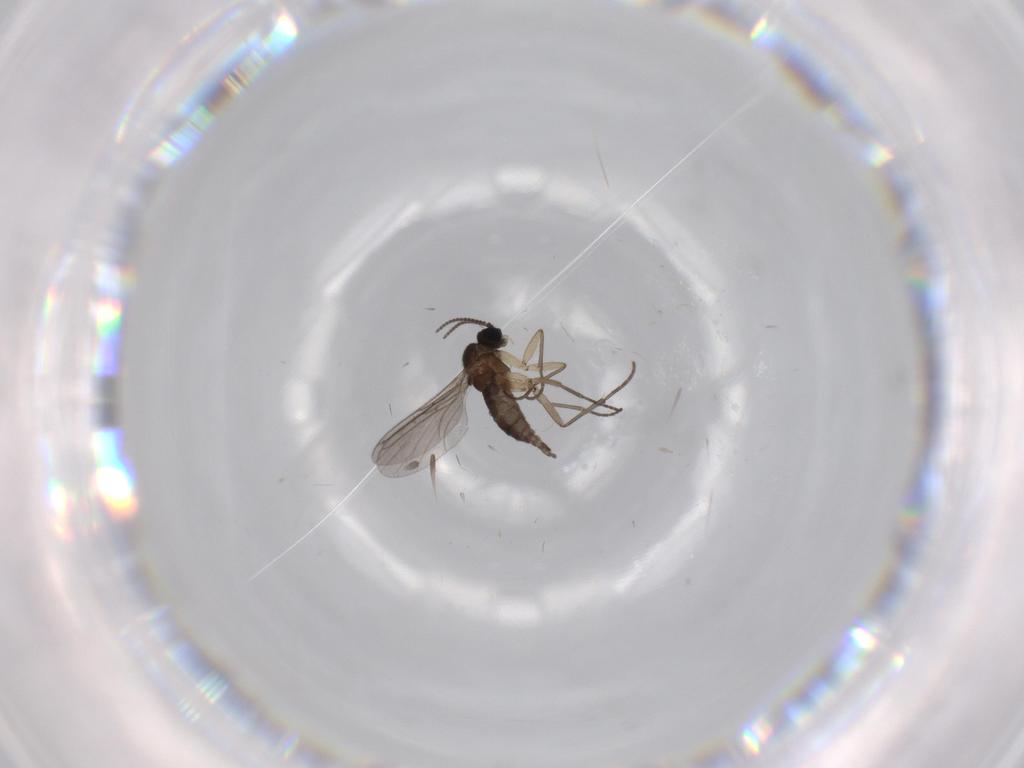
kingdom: Animalia
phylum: Arthropoda
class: Insecta
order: Diptera
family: Sciaridae
